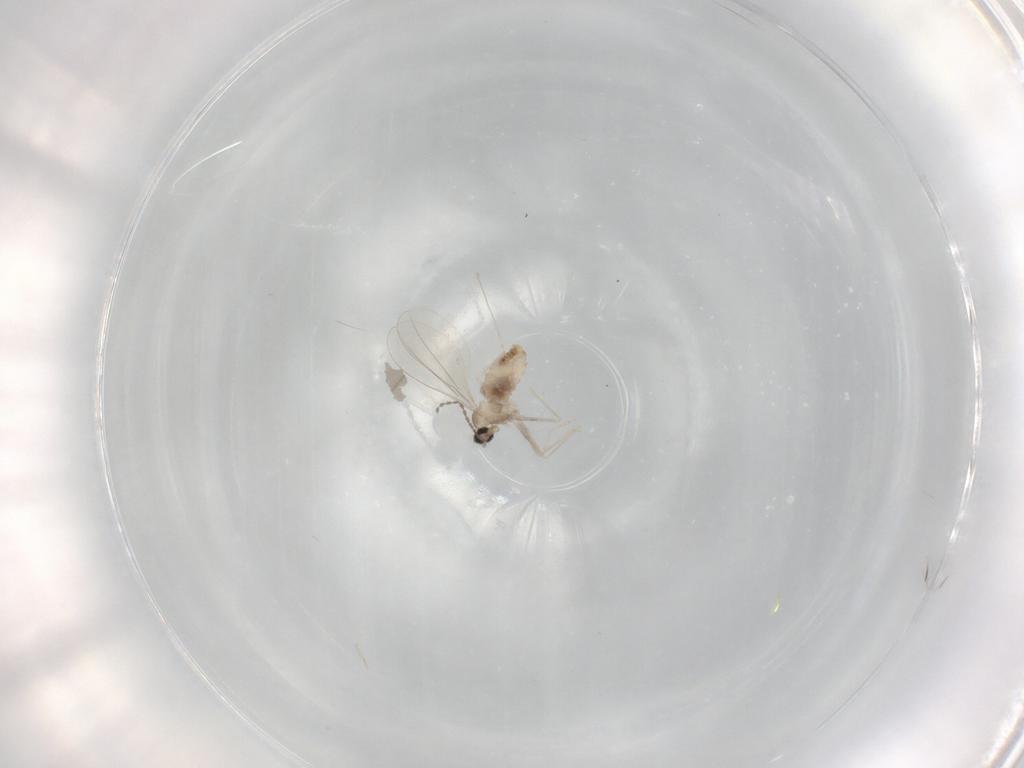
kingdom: Animalia
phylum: Arthropoda
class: Insecta
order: Diptera
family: Cecidomyiidae
